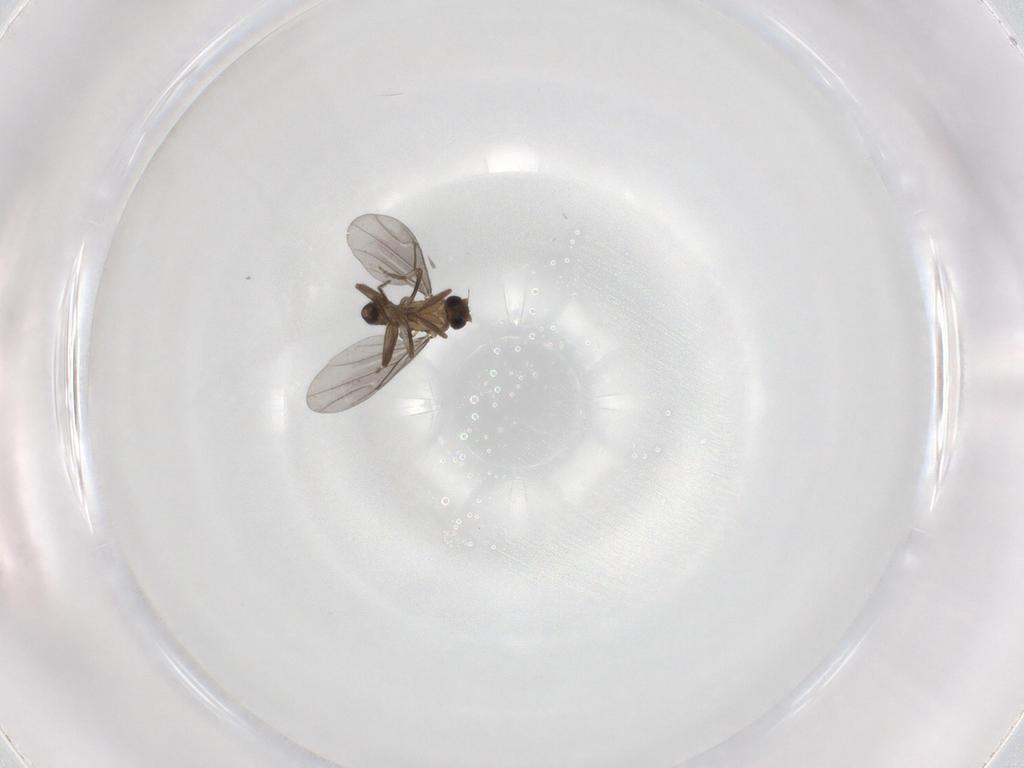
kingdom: Animalia
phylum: Arthropoda
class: Insecta
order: Diptera
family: Phoridae
